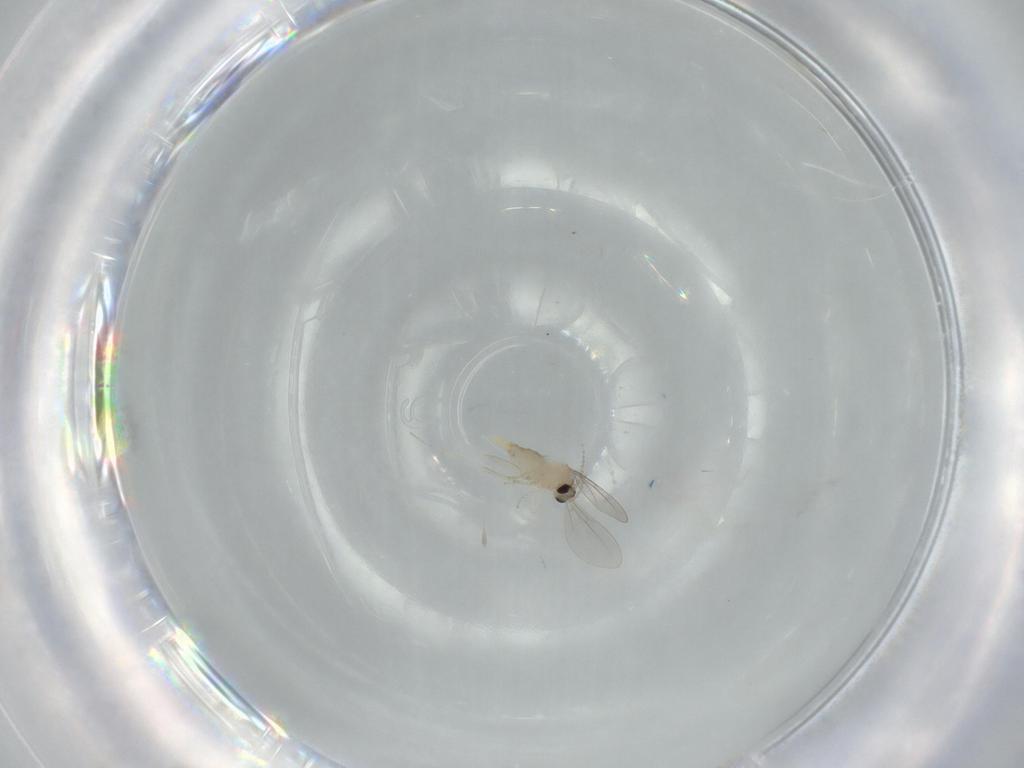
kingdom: Animalia
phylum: Arthropoda
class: Insecta
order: Diptera
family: Cecidomyiidae
